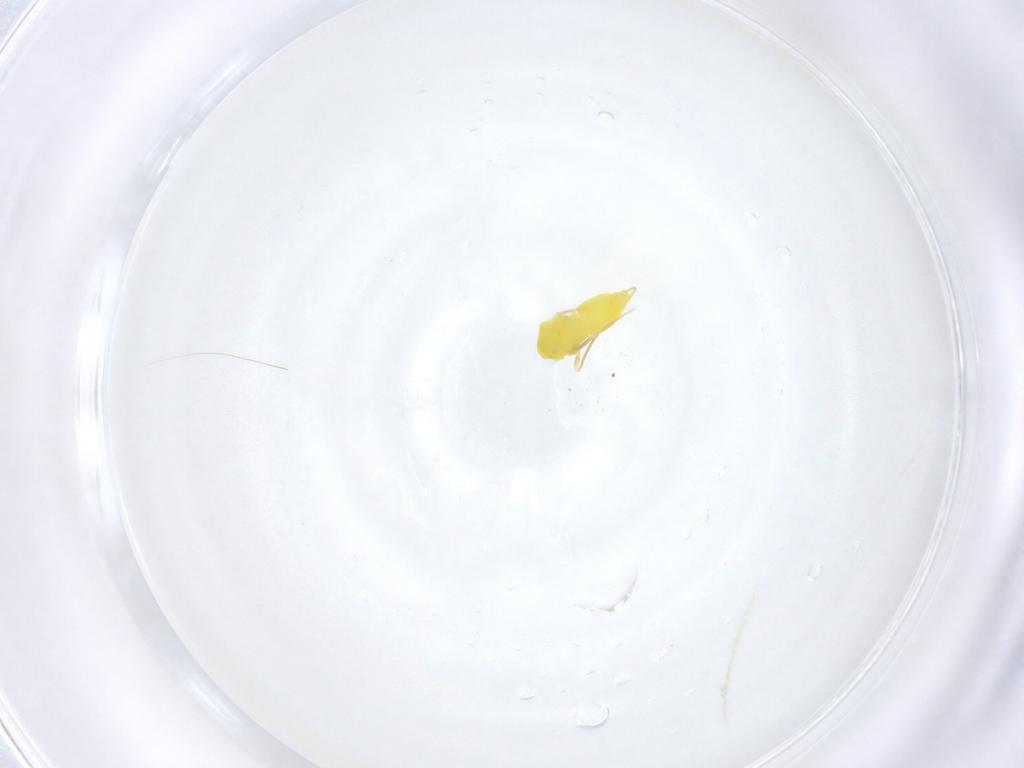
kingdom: Animalia
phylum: Arthropoda
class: Insecta
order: Hemiptera
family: Aleyrodidae
